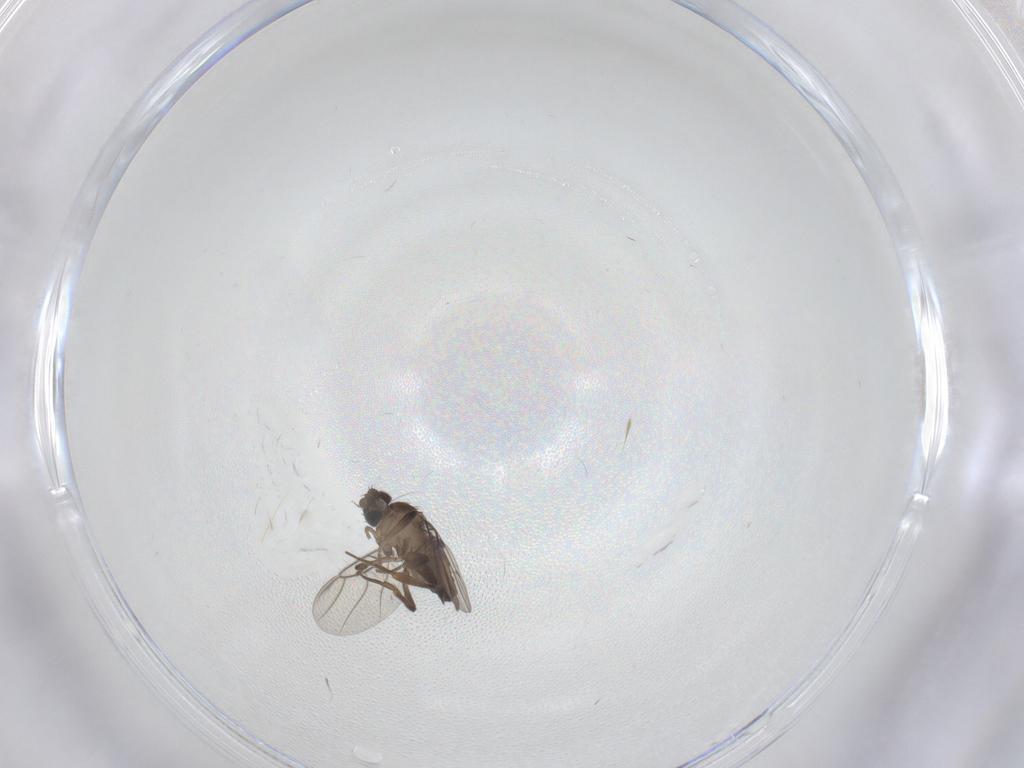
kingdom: Animalia
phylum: Arthropoda
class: Insecta
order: Diptera
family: Phoridae
